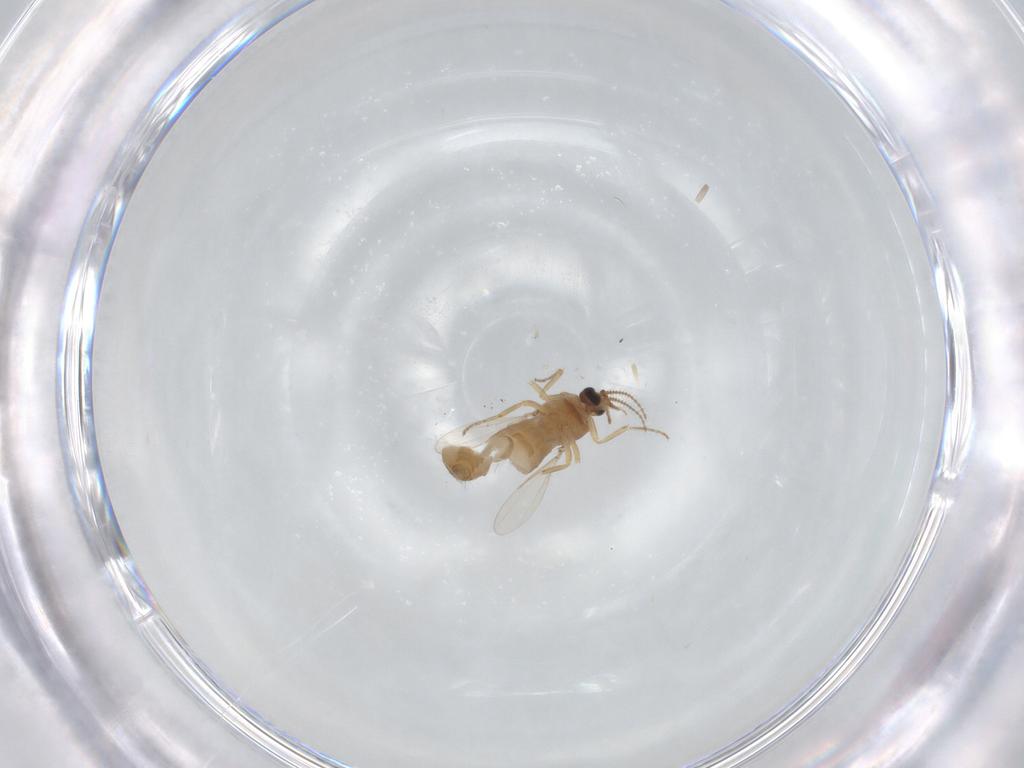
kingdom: Animalia
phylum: Arthropoda
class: Insecta
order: Diptera
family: Ceratopogonidae
